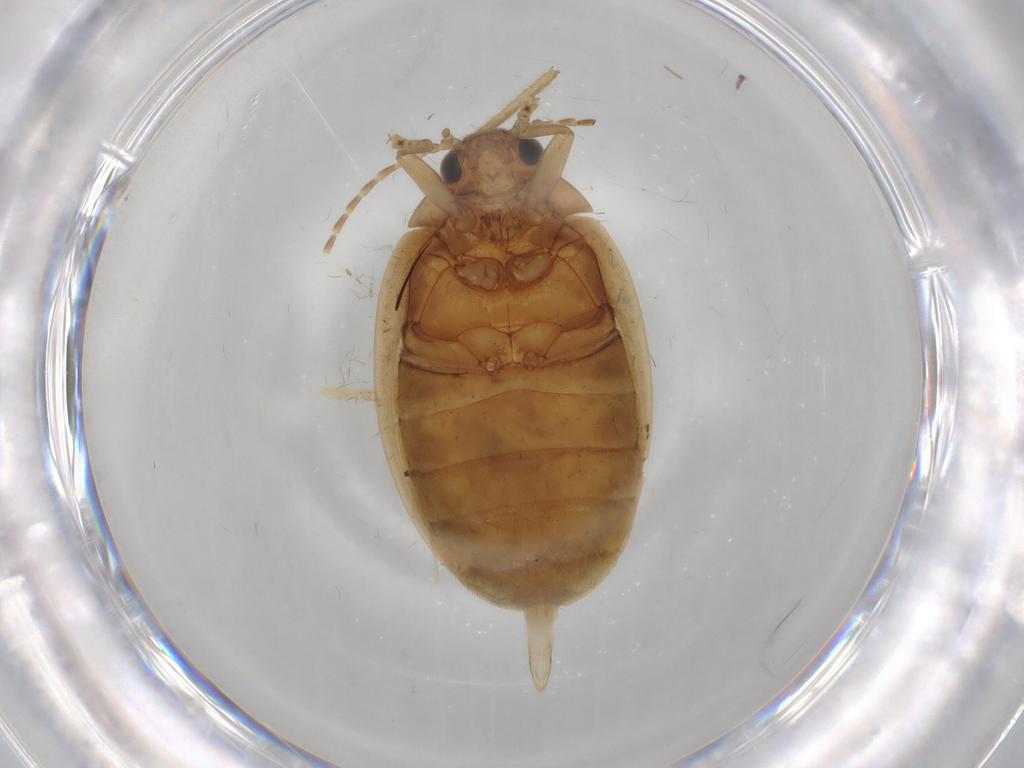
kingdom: Animalia
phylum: Arthropoda
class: Insecta
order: Coleoptera
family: Scirtidae
